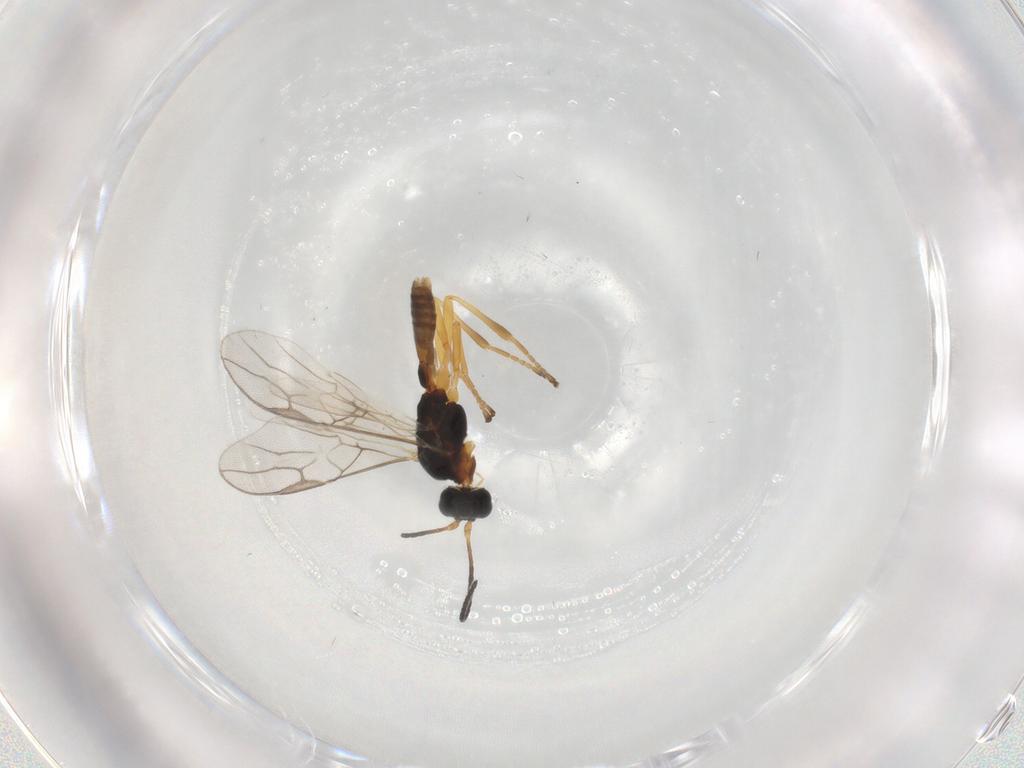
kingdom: Animalia
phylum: Arthropoda
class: Insecta
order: Hymenoptera
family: Braconidae
